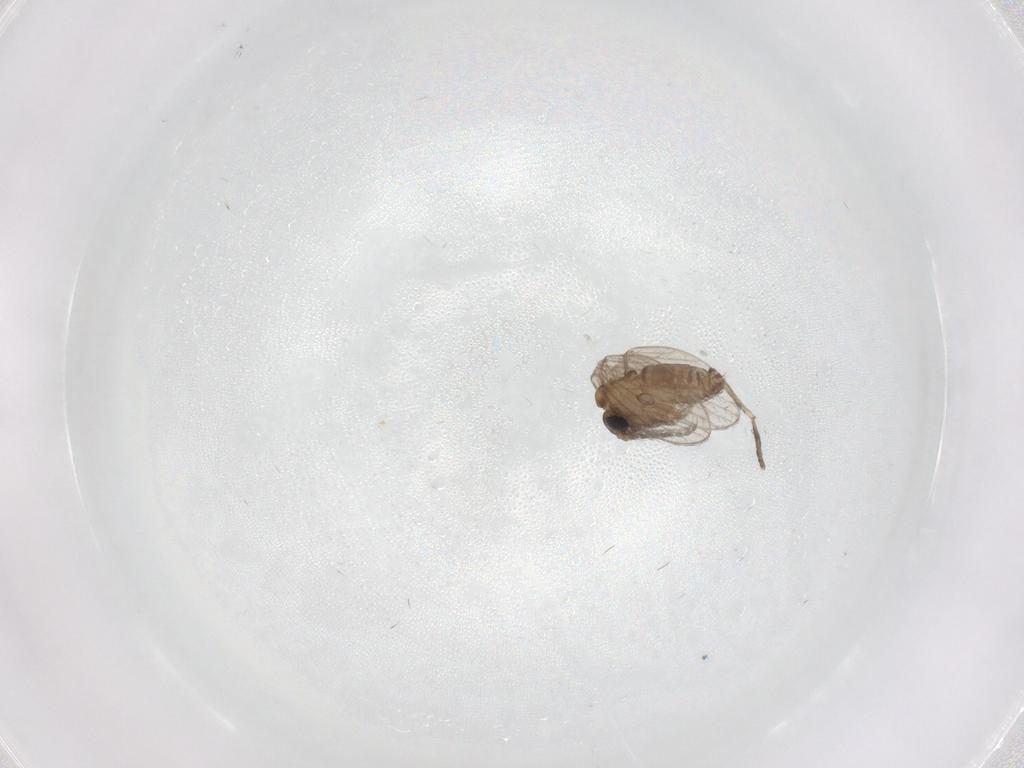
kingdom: Animalia
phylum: Arthropoda
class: Insecta
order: Diptera
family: Psychodidae
